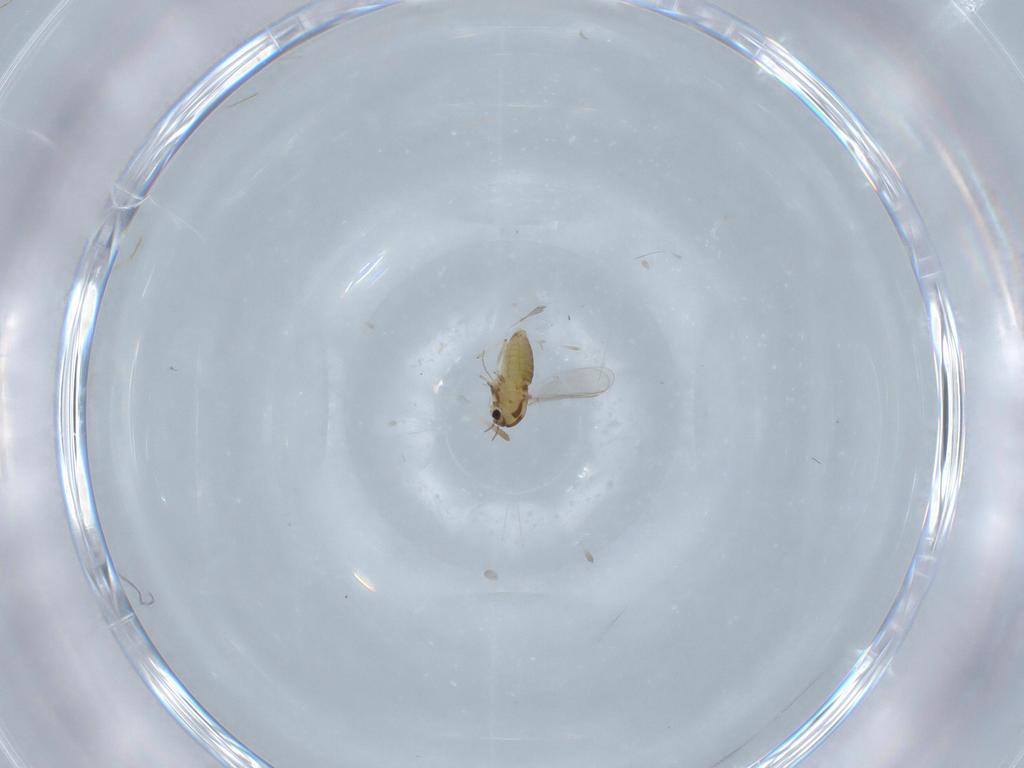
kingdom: Animalia
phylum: Arthropoda
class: Insecta
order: Diptera
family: Chironomidae
